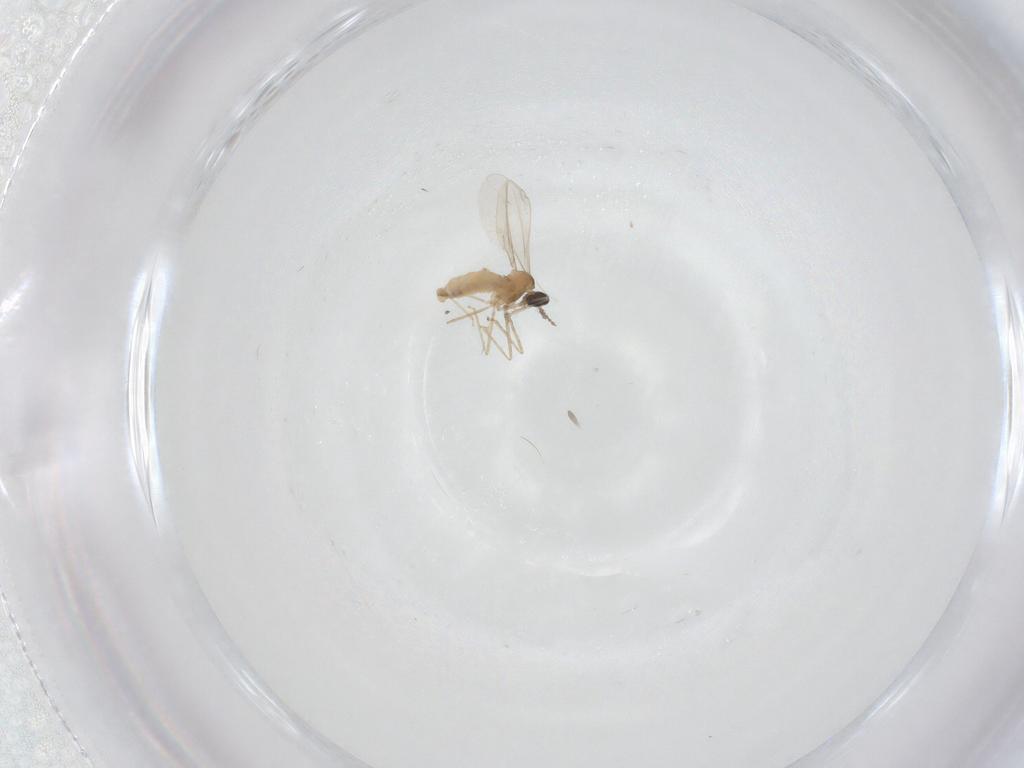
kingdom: Animalia
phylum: Arthropoda
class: Insecta
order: Diptera
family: Cecidomyiidae
